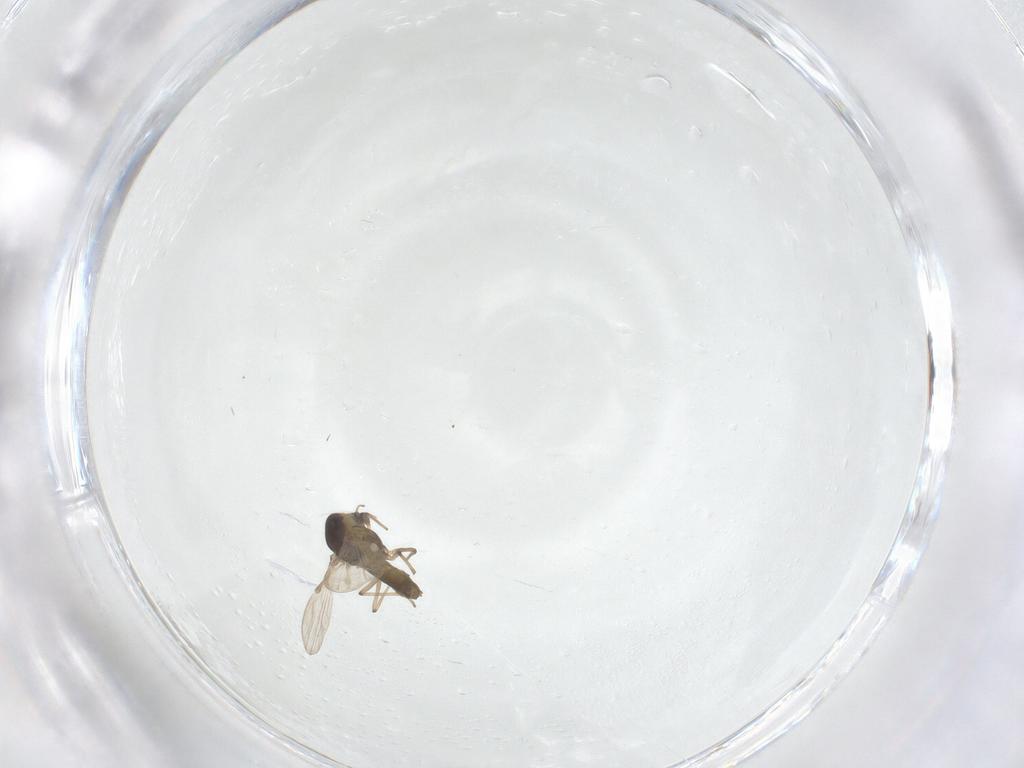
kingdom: Animalia
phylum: Arthropoda
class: Insecta
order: Diptera
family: Chironomidae
